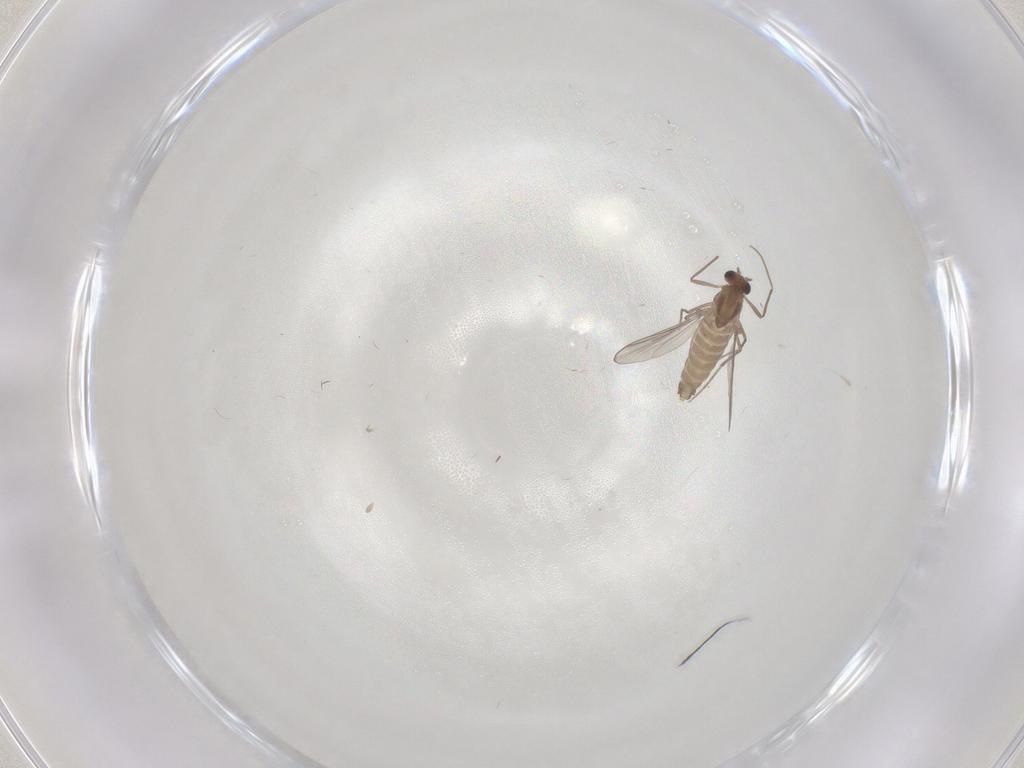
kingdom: Animalia
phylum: Arthropoda
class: Insecta
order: Diptera
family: Chironomidae
